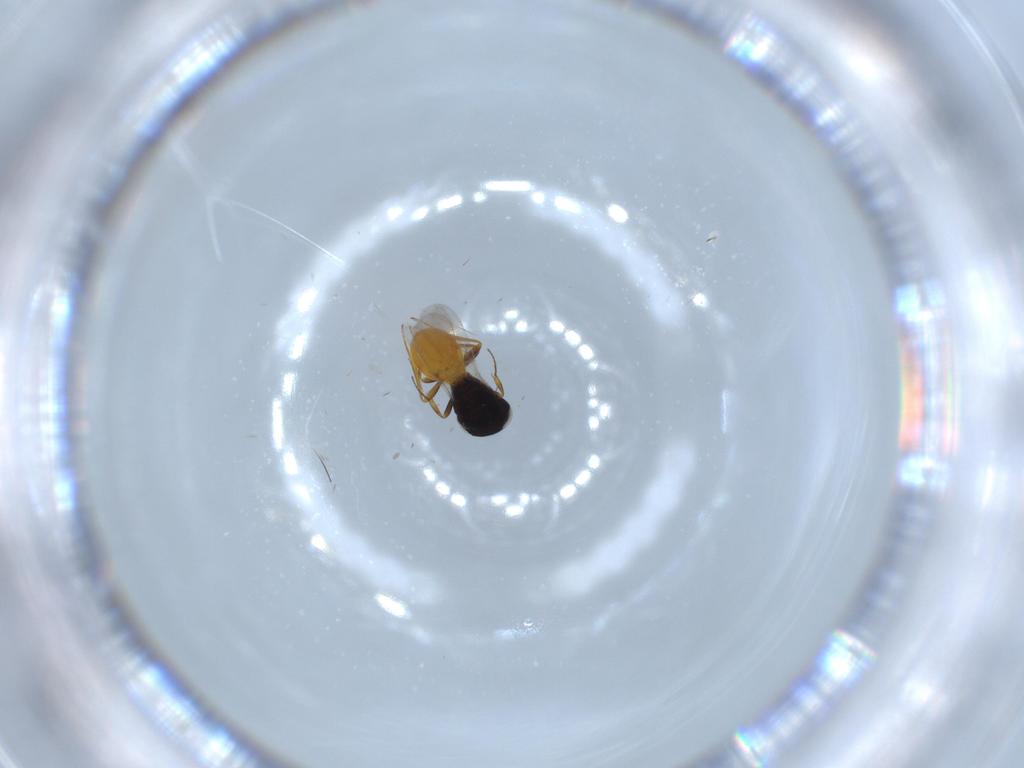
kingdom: Animalia
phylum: Arthropoda
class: Insecta
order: Hymenoptera
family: Scelionidae
